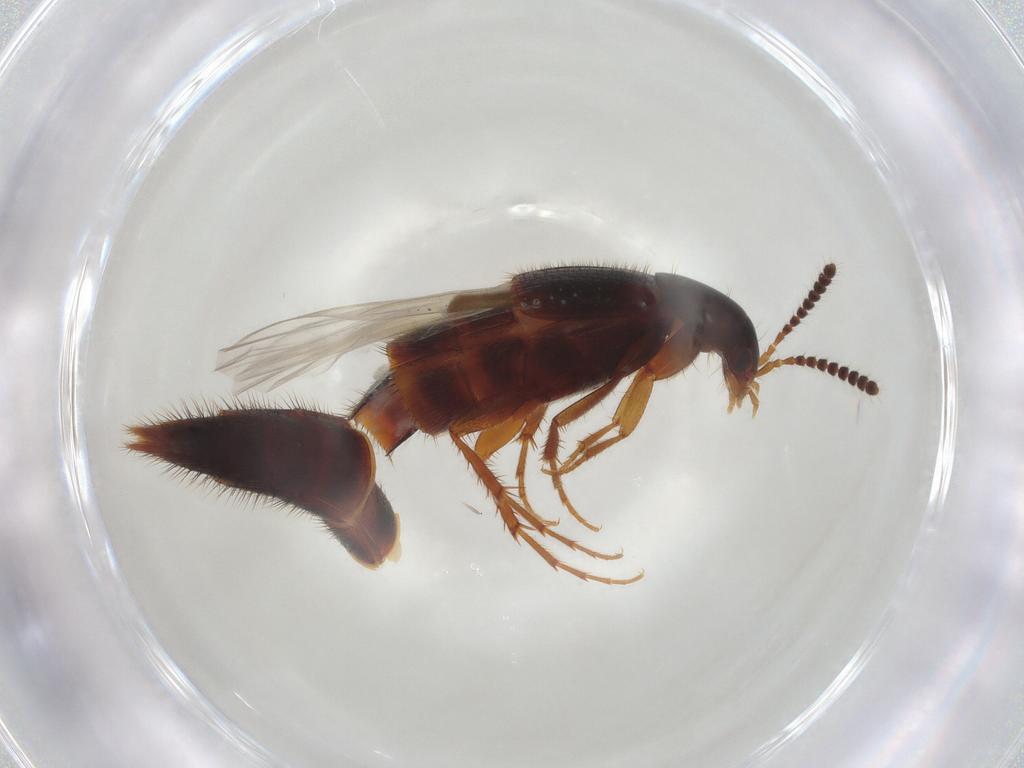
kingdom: Animalia
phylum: Arthropoda
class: Insecta
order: Coleoptera
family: Staphylinidae
